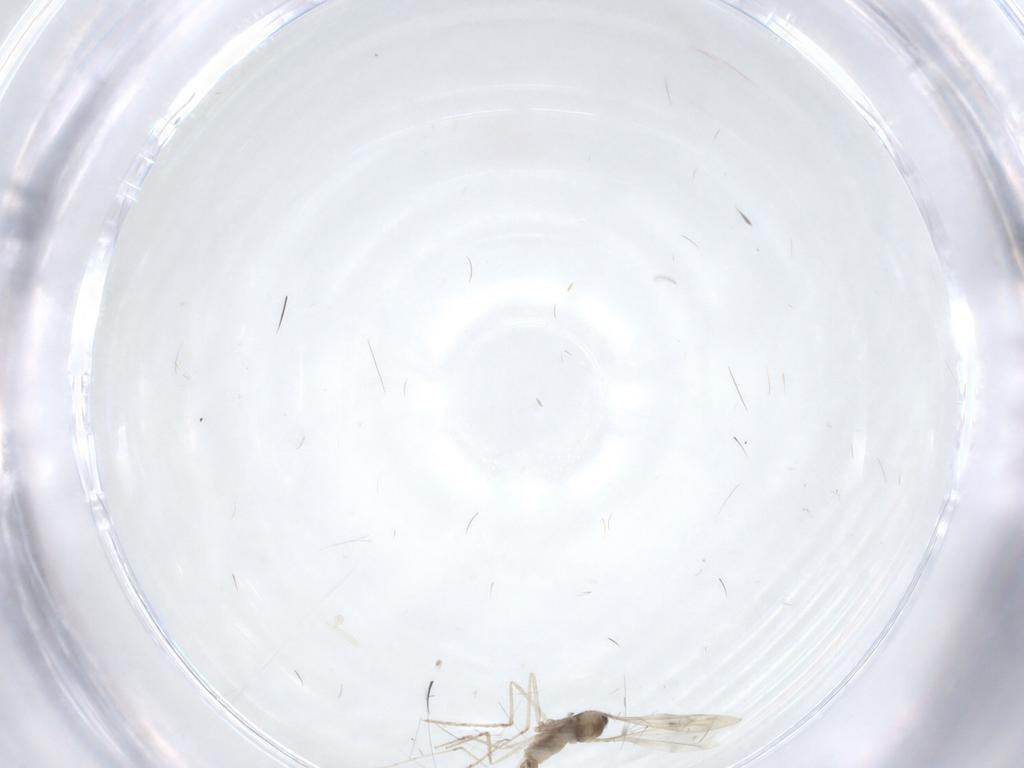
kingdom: Animalia
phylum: Arthropoda
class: Insecta
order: Diptera
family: Cecidomyiidae
